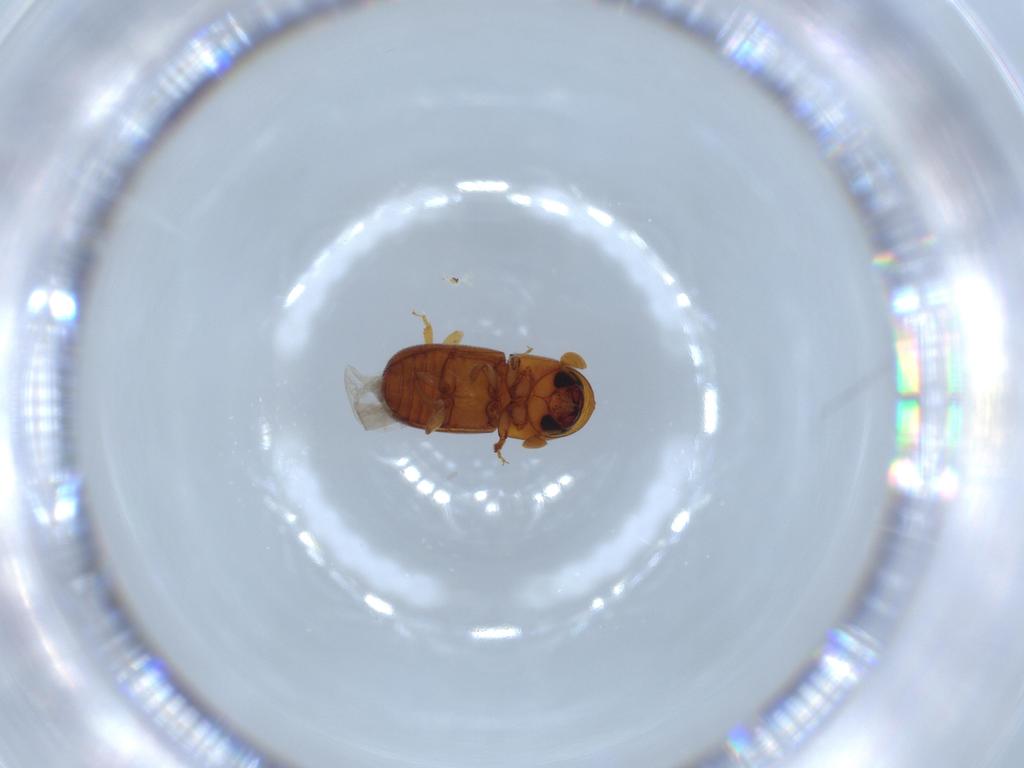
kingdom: Animalia
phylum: Arthropoda
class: Insecta
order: Coleoptera
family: Curculionidae
